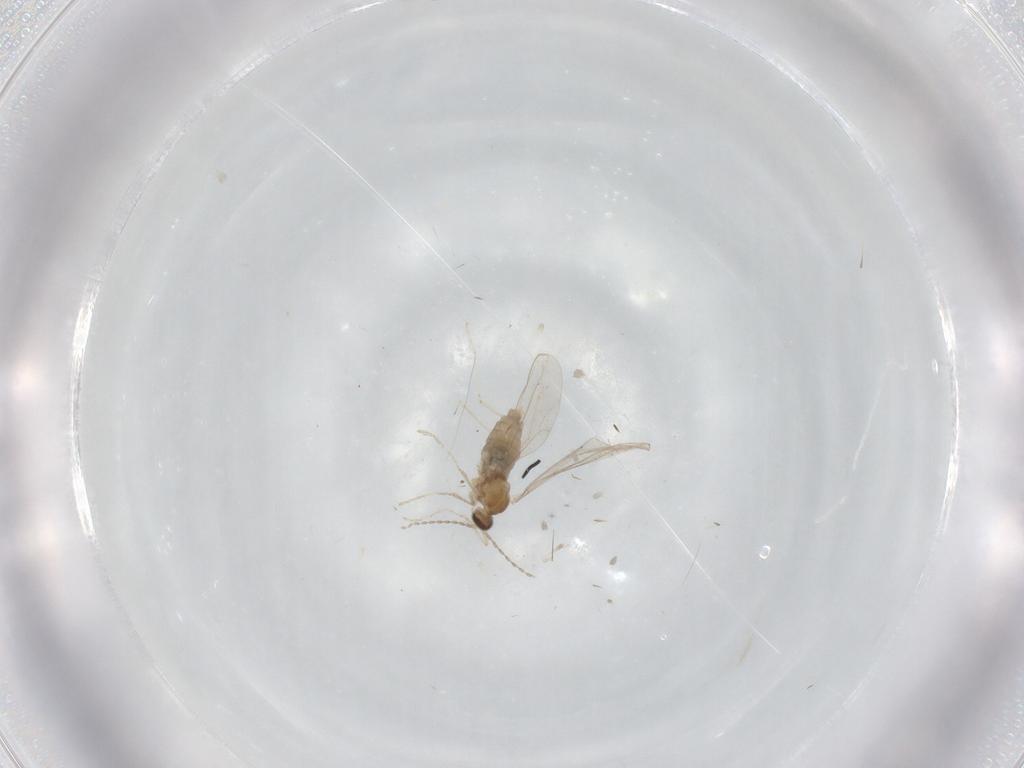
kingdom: Animalia
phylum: Arthropoda
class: Insecta
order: Diptera
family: Cecidomyiidae
